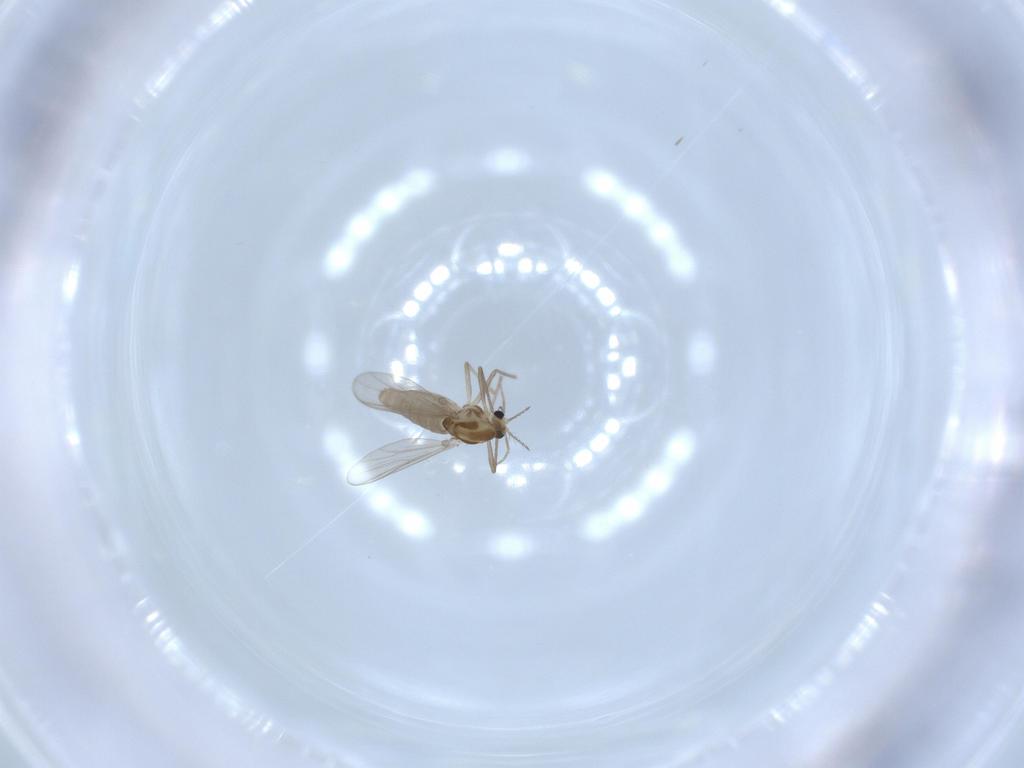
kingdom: Animalia
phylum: Arthropoda
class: Insecta
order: Diptera
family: Chironomidae
